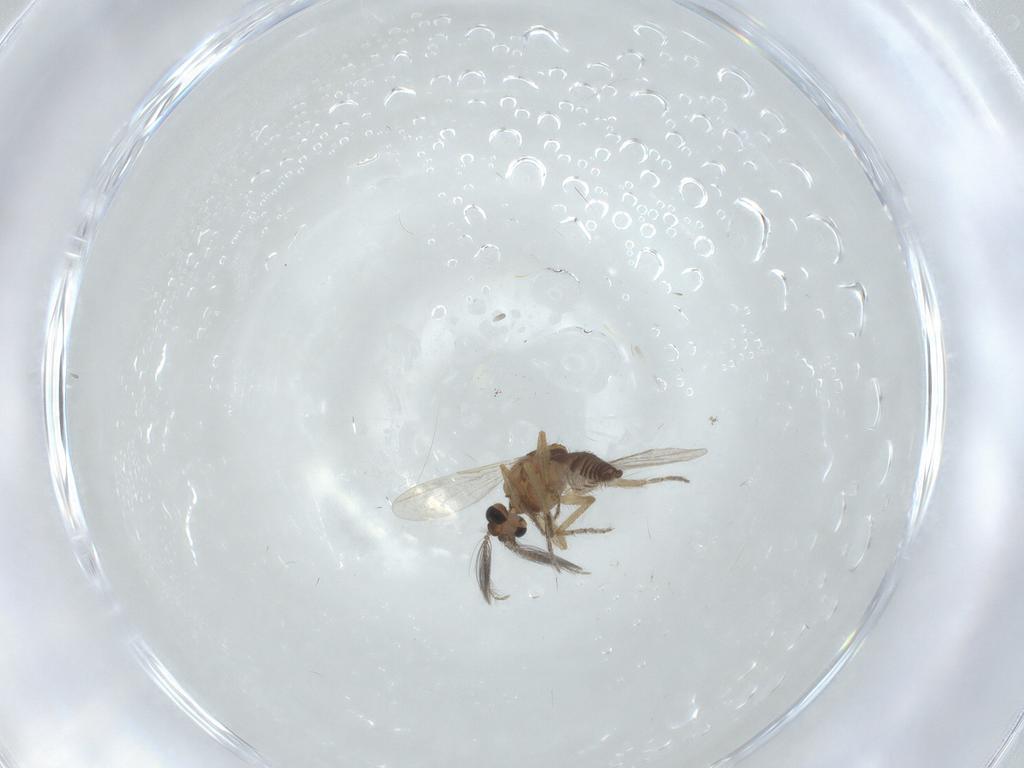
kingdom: Animalia
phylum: Arthropoda
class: Insecta
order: Diptera
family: Ceratopogonidae
